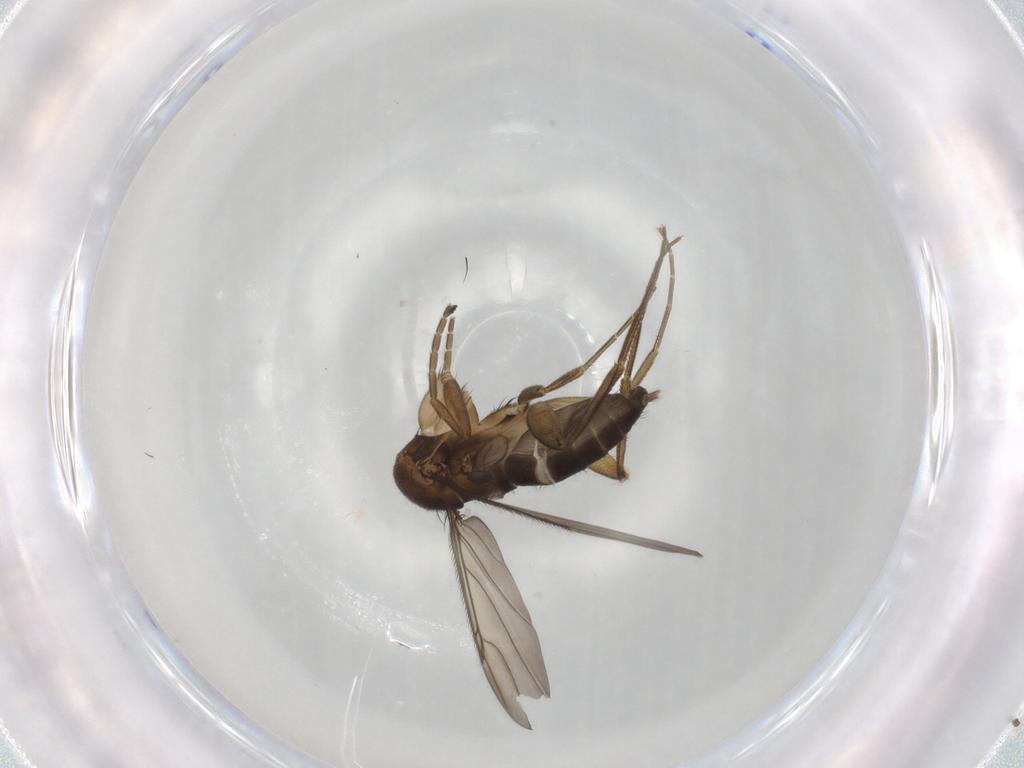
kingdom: Animalia
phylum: Arthropoda
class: Insecta
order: Diptera
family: Phoridae
